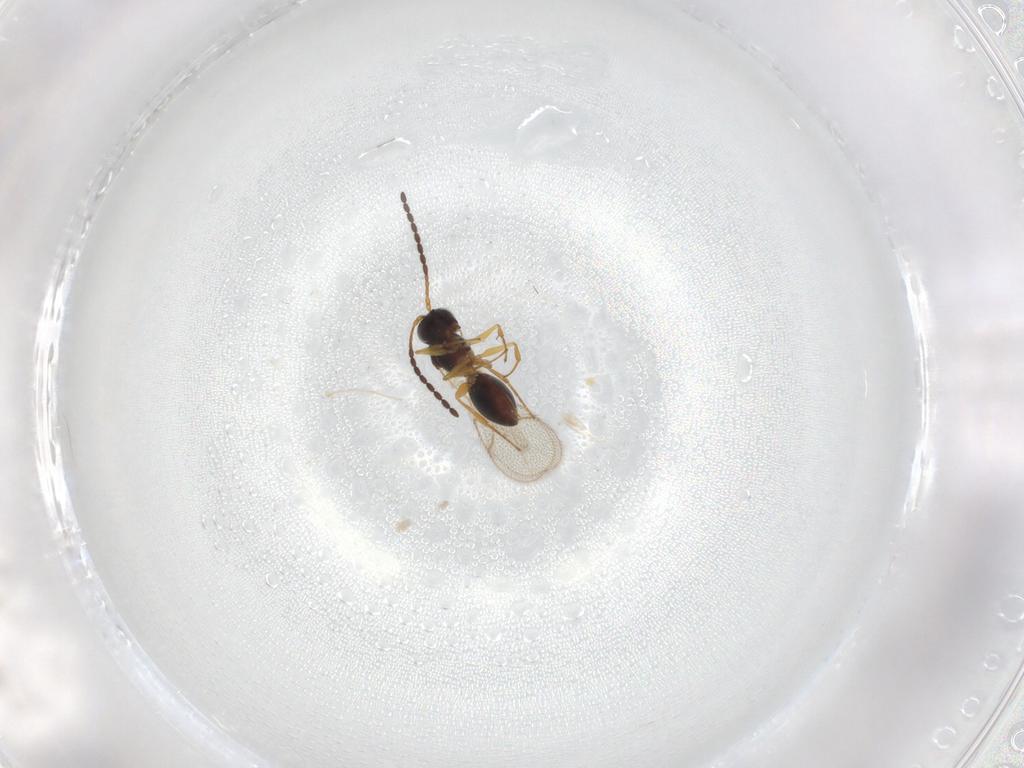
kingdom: Animalia
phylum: Arthropoda
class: Insecta
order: Hymenoptera
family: Figitidae
